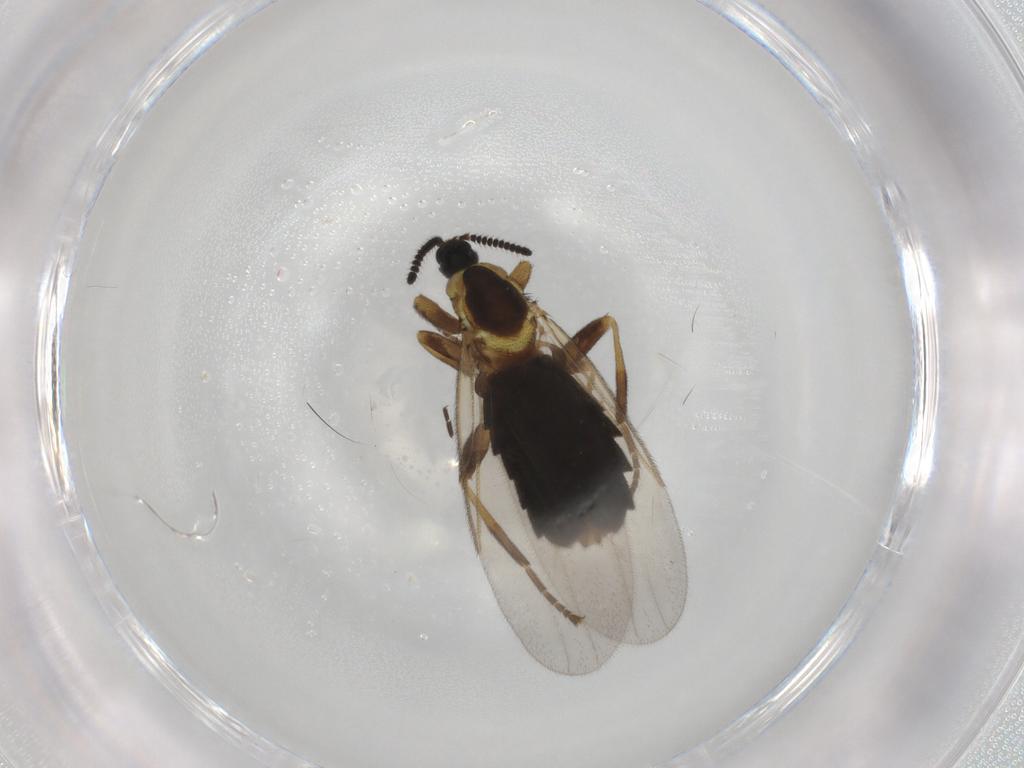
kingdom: Animalia
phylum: Arthropoda
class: Insecta
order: Diptera
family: Scatopsidae
